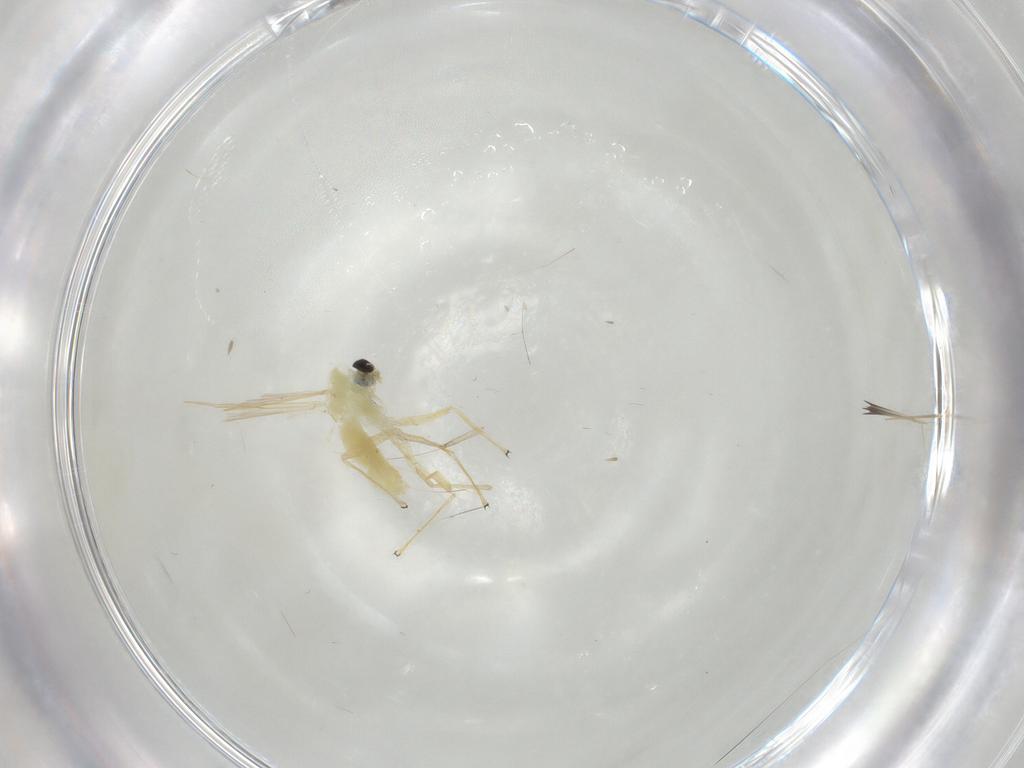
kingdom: Animalia
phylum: Arthropoda
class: Insecta
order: Diptera
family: Chironomidae
